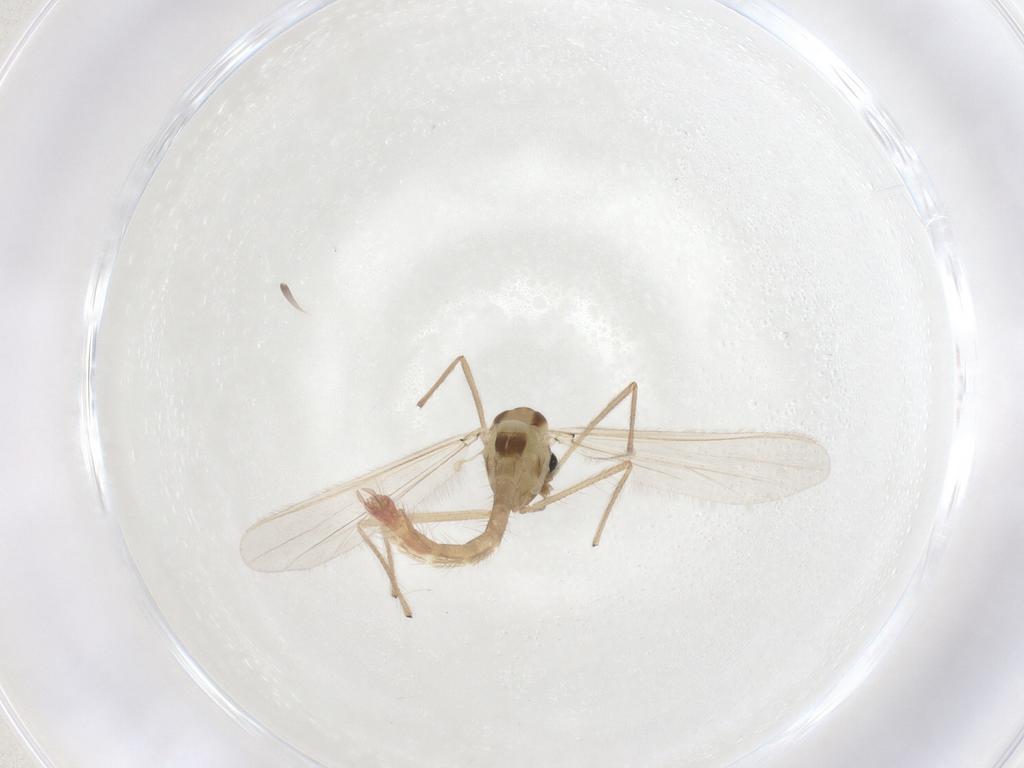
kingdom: Animalia
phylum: Arthropoda
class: Insecta
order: Diptera
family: Chironomidae
